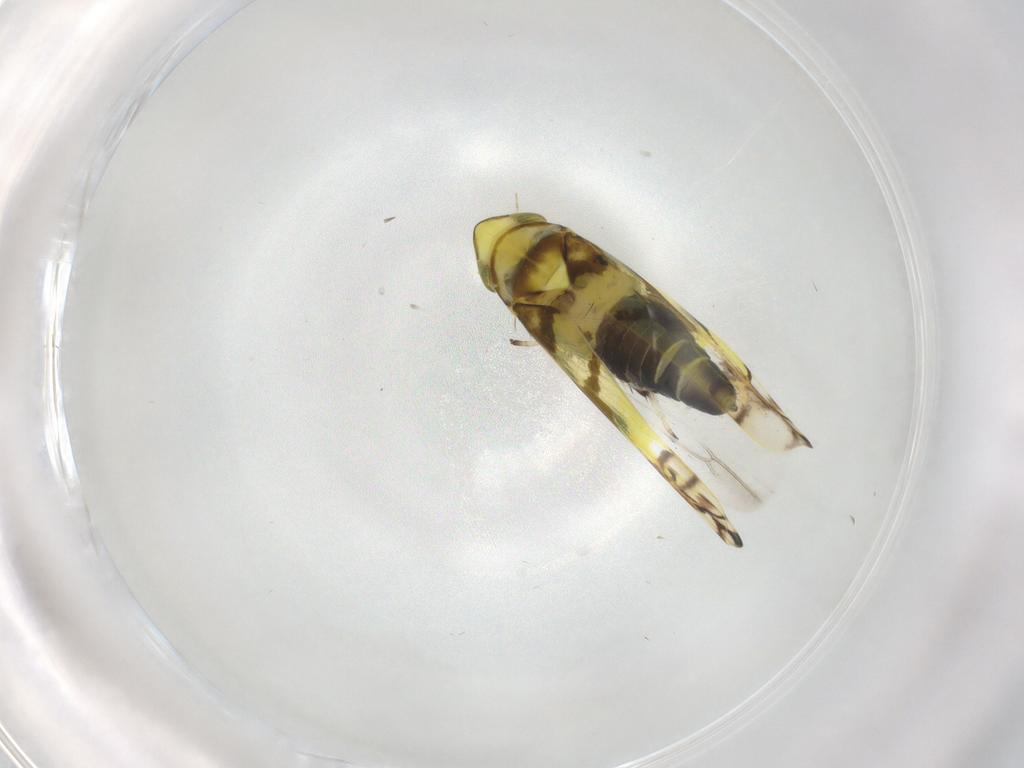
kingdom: Animalia
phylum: Arthropoda
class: Insecta
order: Hemiptera
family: Cicadellidae
